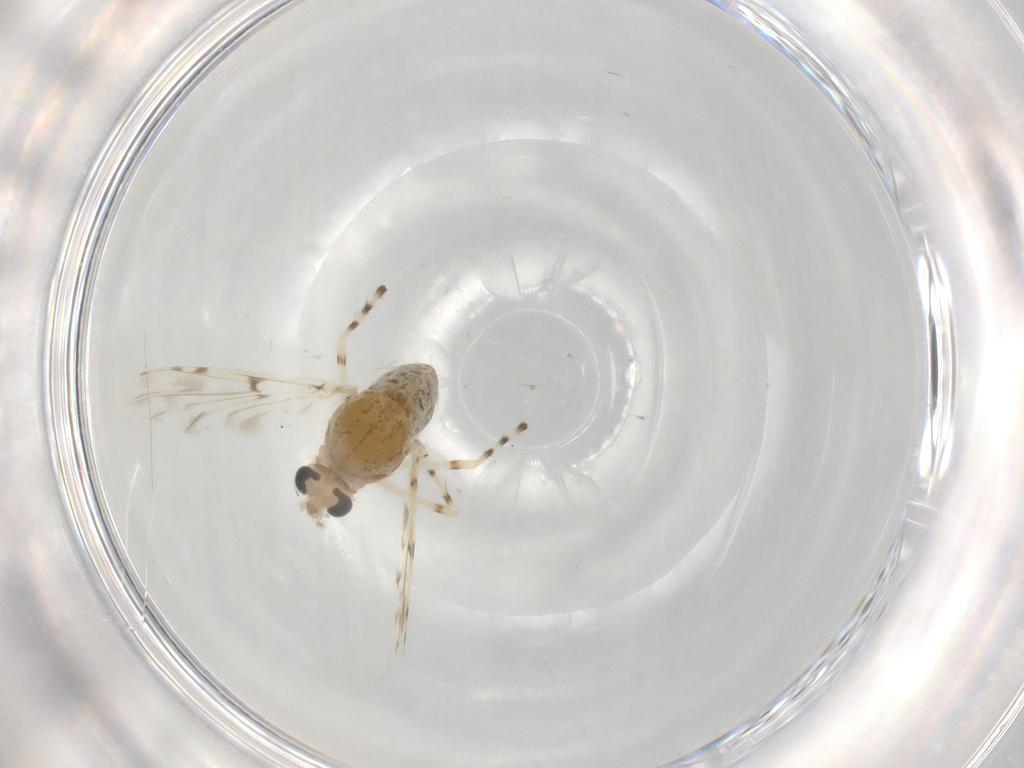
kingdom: Animalia
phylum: Arthropoda
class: Insecta
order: Diptera
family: Chironomidae
